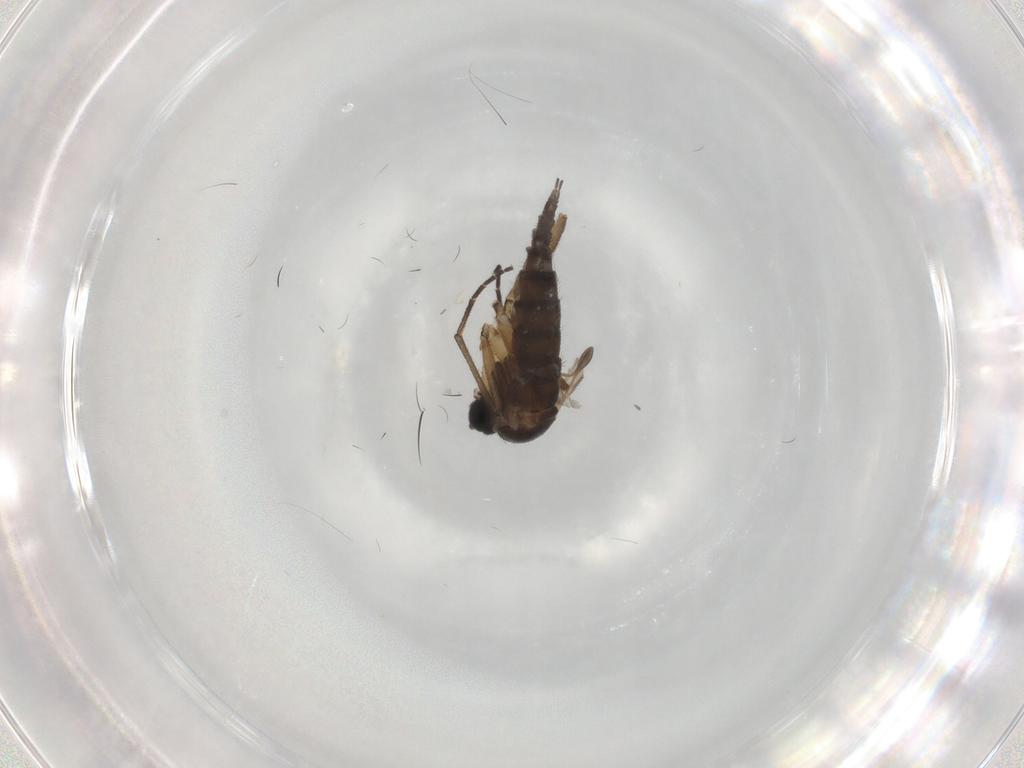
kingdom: Animalia
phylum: Arthropoda
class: Insecta
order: Diptera
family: Sciaridae
